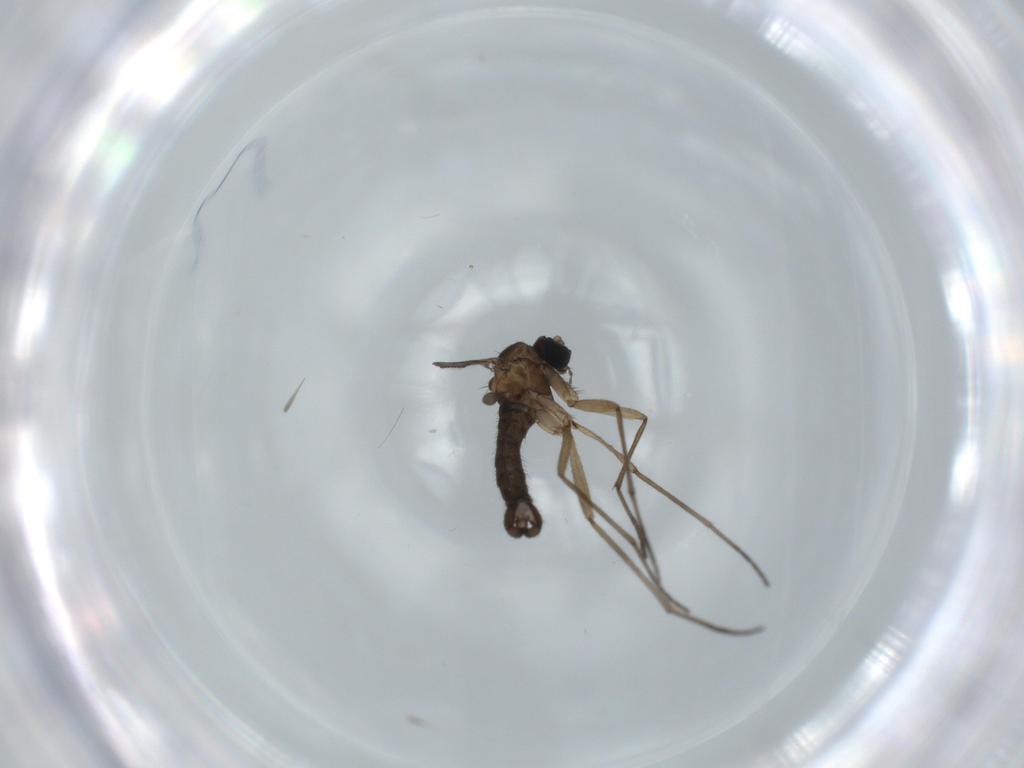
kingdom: Animalia
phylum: Arthropoda
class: Insecta
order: Diptera
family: Sciaridae
